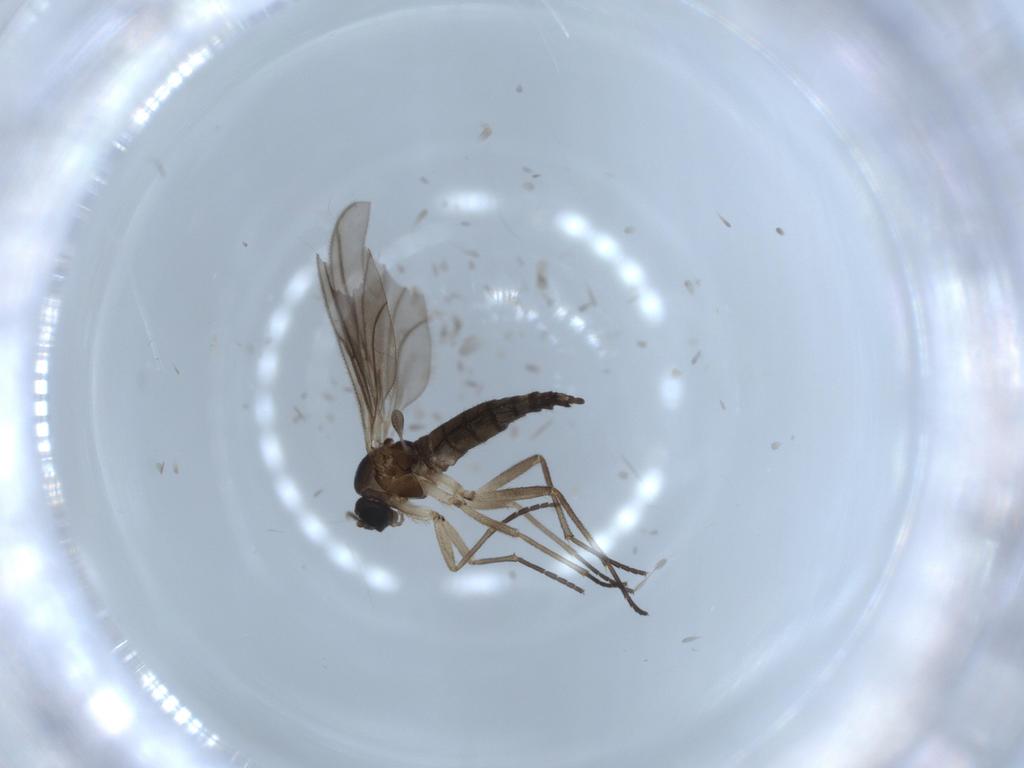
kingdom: Animalia
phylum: Arthropoda
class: Insecta
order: Diptera
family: Sciaridae
